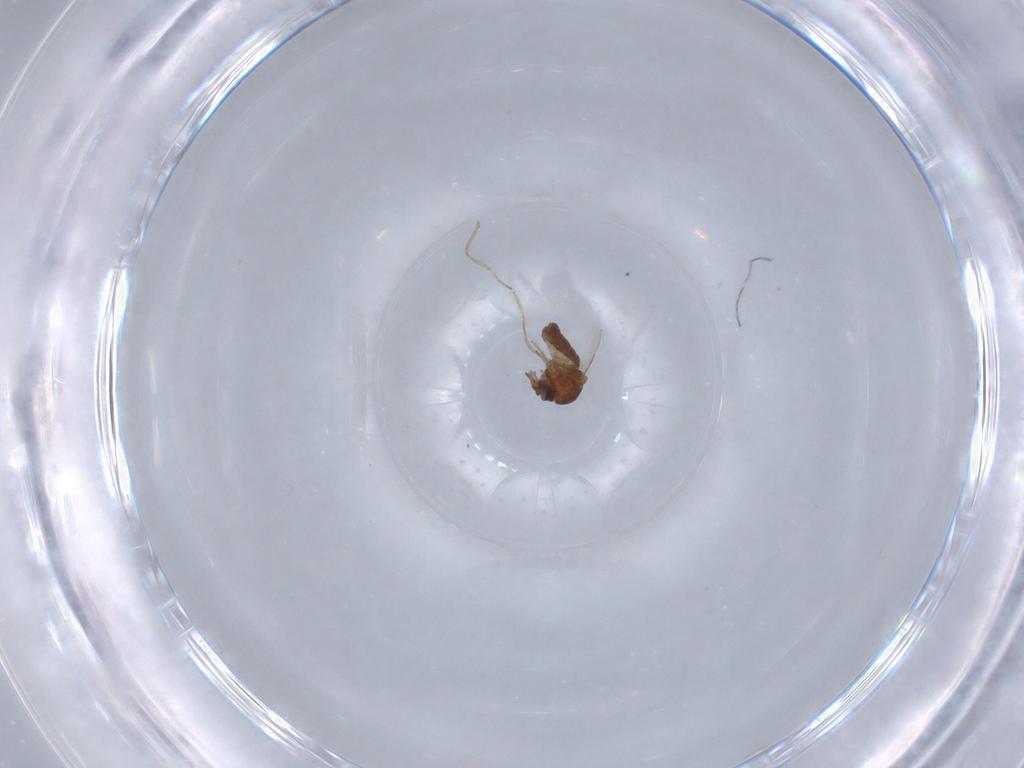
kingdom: Animalia
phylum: Arthropoda
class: Insecta
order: Diptera
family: Ceratopogonidae
